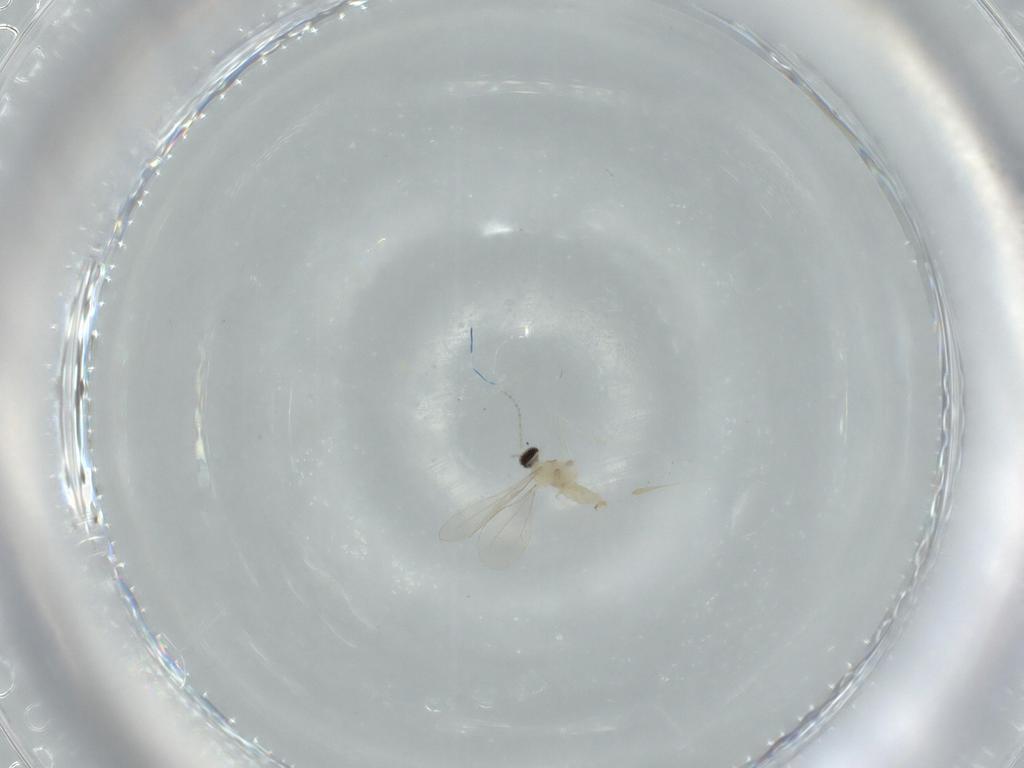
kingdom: Animalia
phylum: Arthropoda
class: Insecta
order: Diptera
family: Cecidomyiidae
